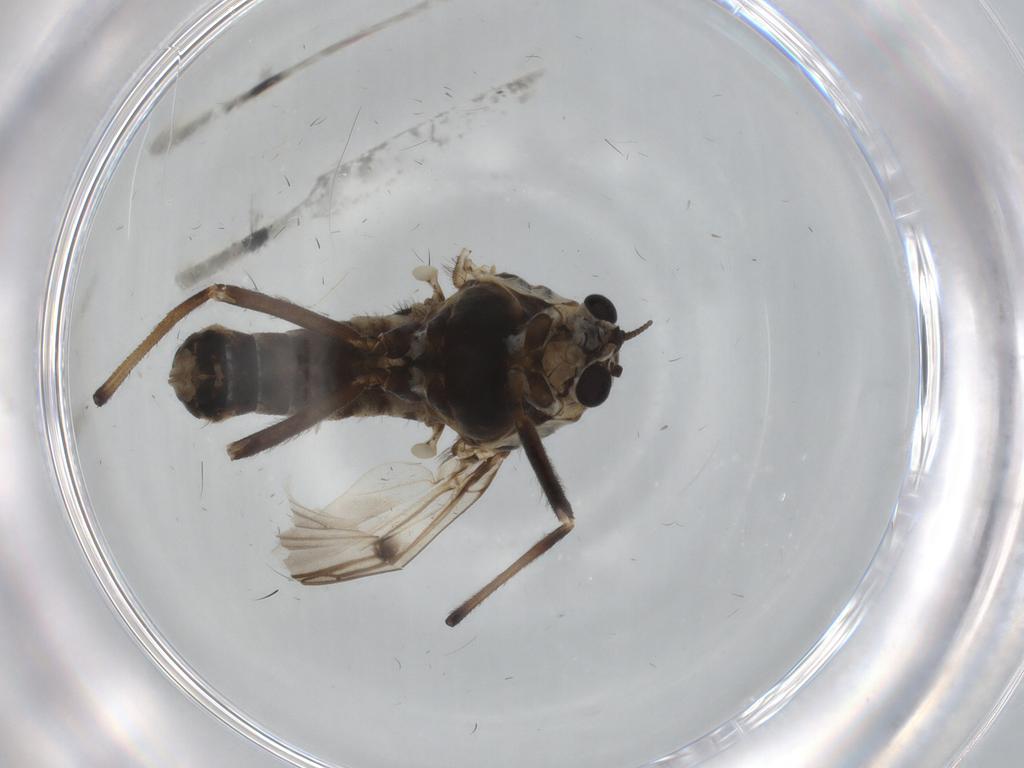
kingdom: Animalia
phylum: Arthropoda
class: Insecta
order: Diptera
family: Chironomidae
